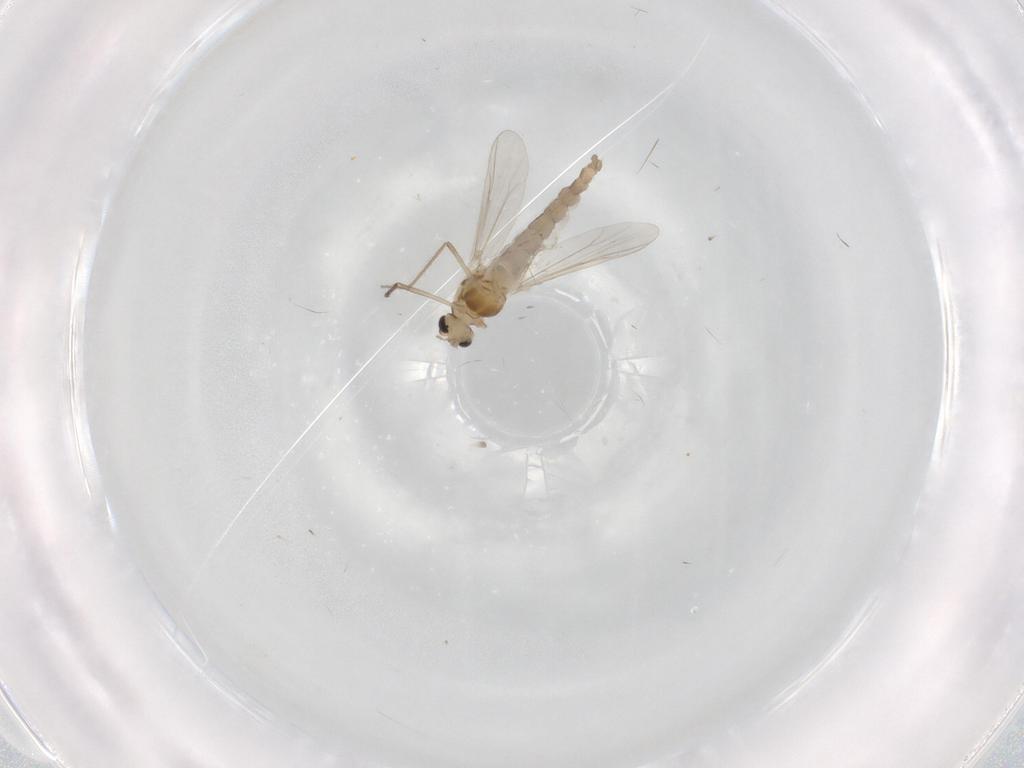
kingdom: Animalia
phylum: Arthropoda
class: Insecta
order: Diptera
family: Chironomidae
